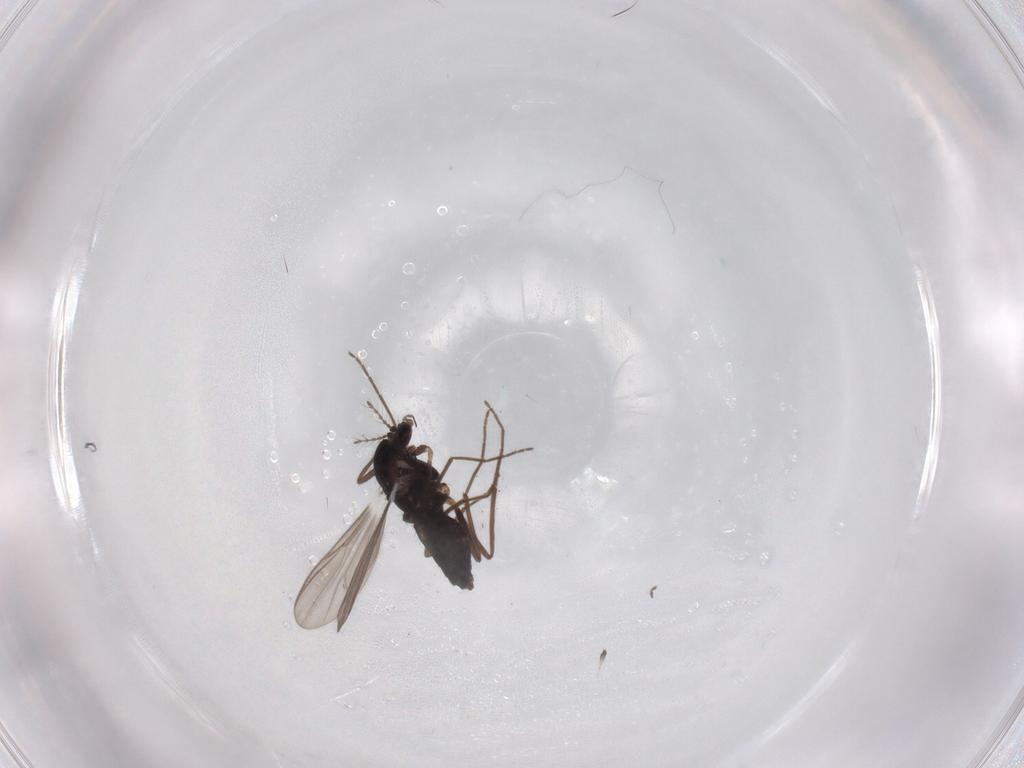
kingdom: Animalia
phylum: Arthropoda
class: Insecta
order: Diptera
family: Chironomidae
